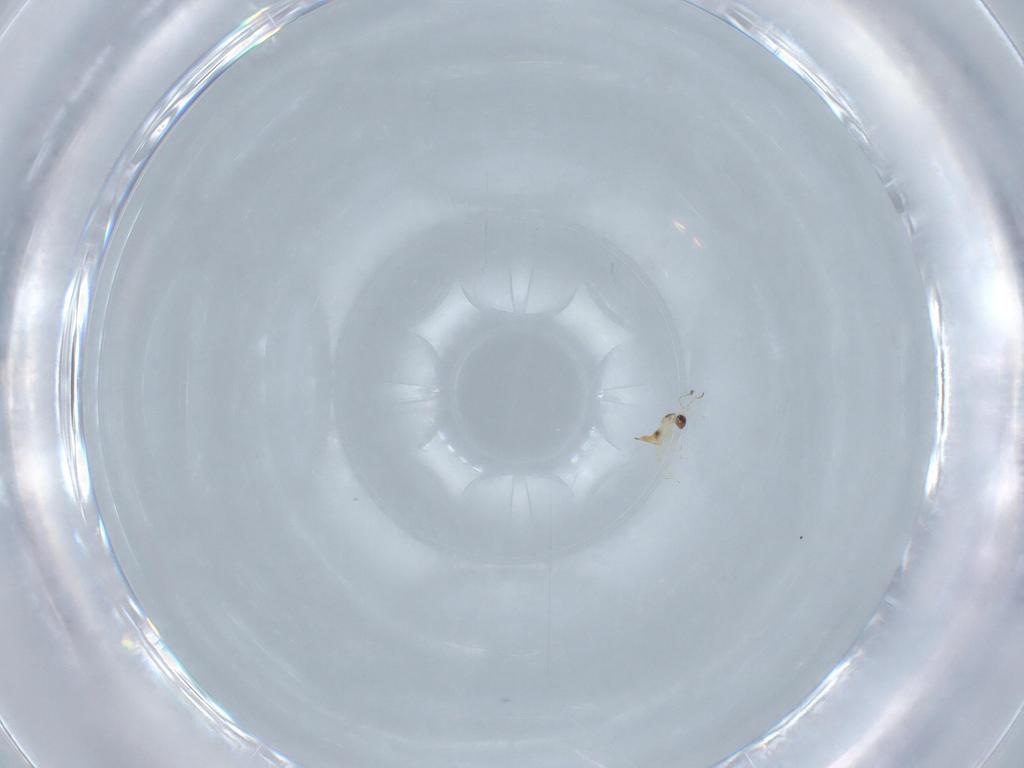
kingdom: Animalia
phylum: Arthropoda
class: Insecta
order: Hymenoptera
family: Mymaridae
